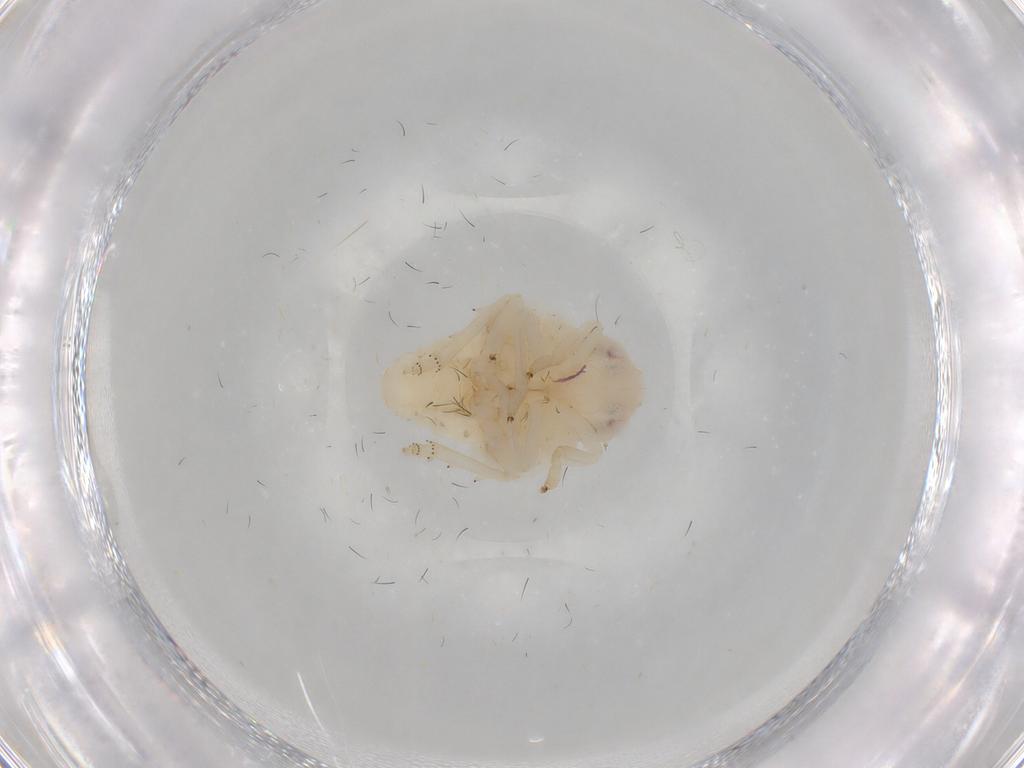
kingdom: Animalia
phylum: Arthropoda
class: Insecta
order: Hemiptera
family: Nogodinidae
